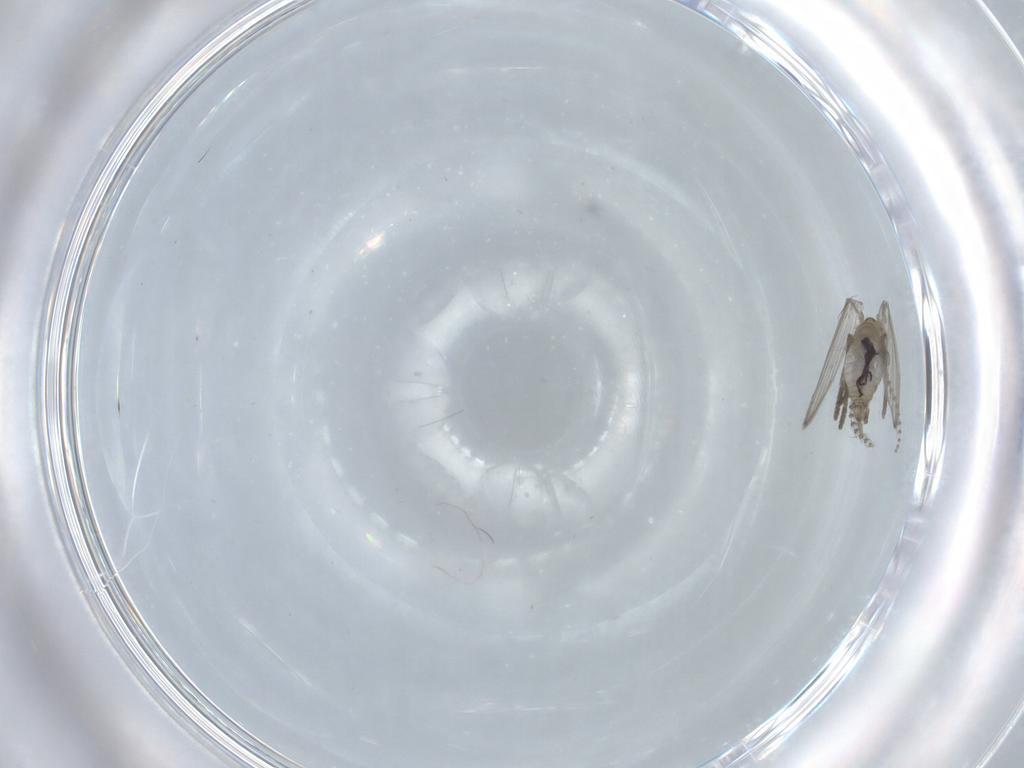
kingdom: Animalia
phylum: Arthropoda
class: Insecta
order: Diptera
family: Psychodidae
